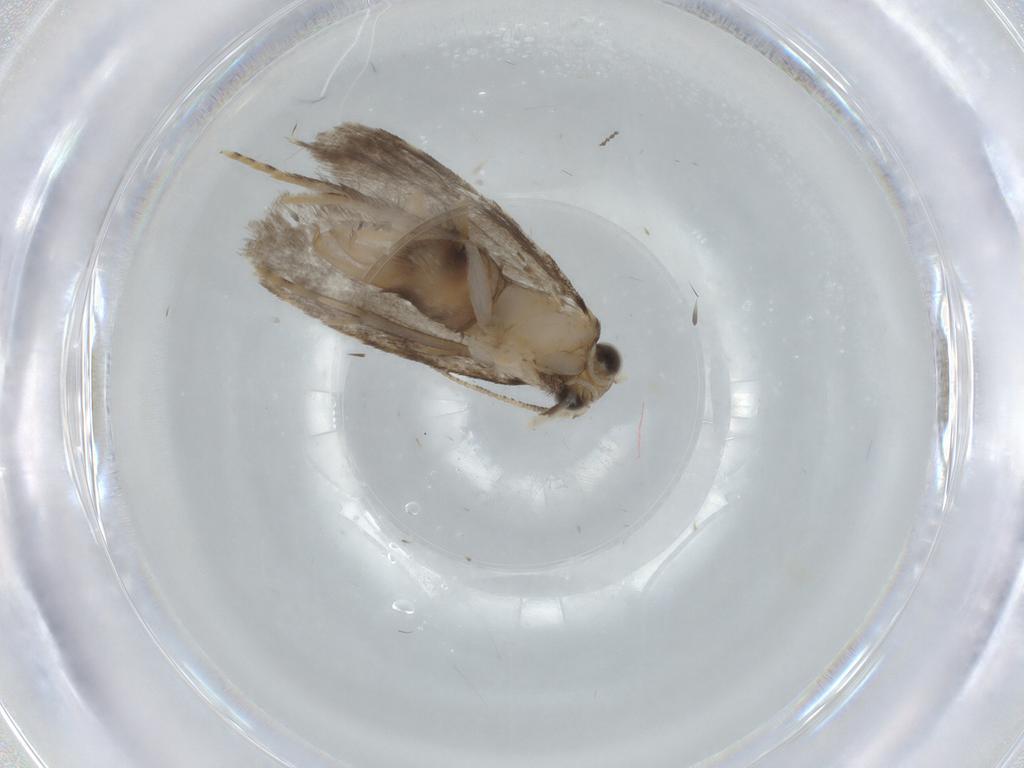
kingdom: Animalia
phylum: Arthropoda
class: Insecta
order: Lepidoptera
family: Tineidae
